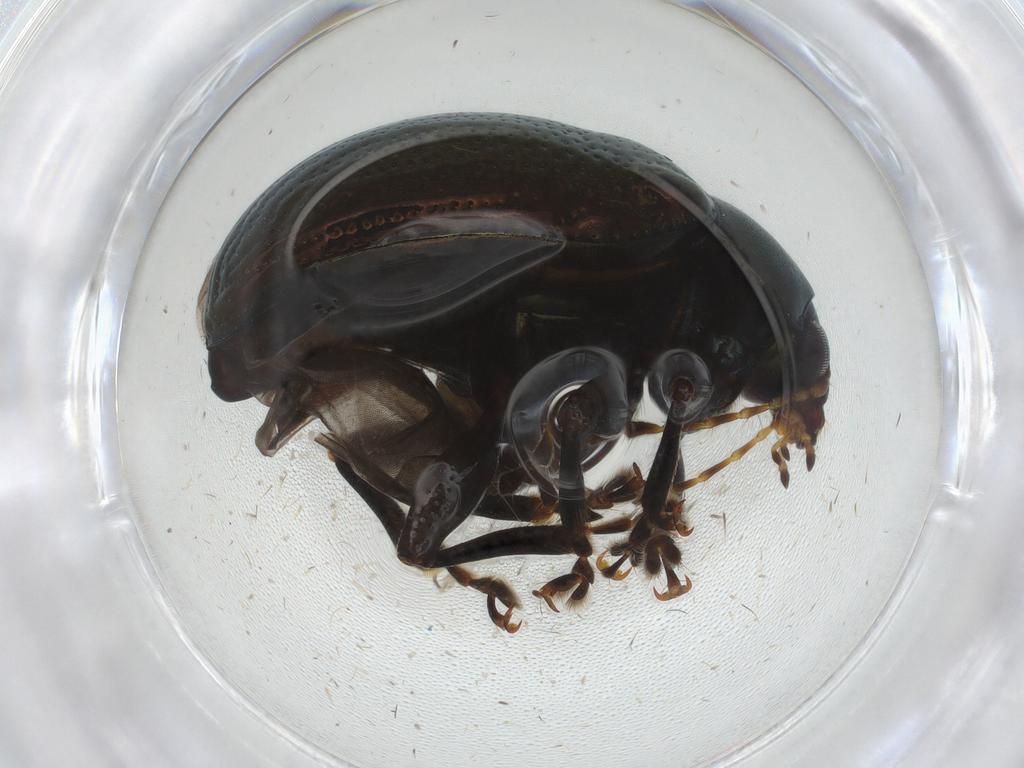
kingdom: Animalia
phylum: Arthropoda
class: Insecta
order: Coleoptera
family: Chrysomelidae
